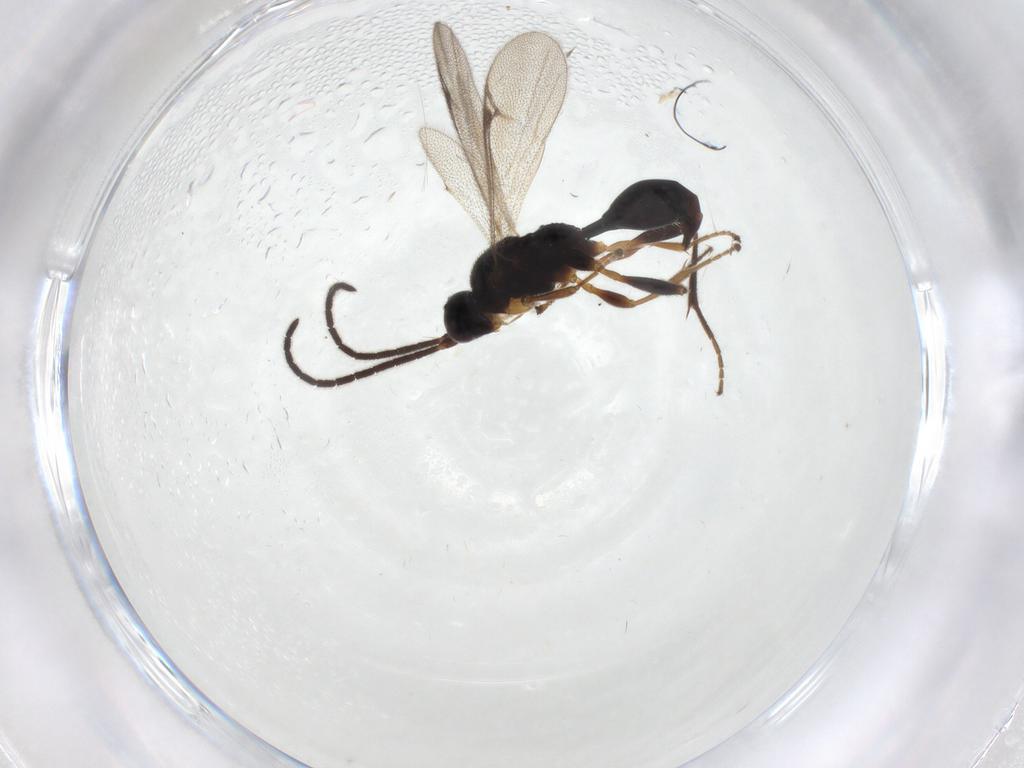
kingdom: Animalia
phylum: Arthropoda
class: Insecta
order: Hymenoptera
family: Proctotrupidae
